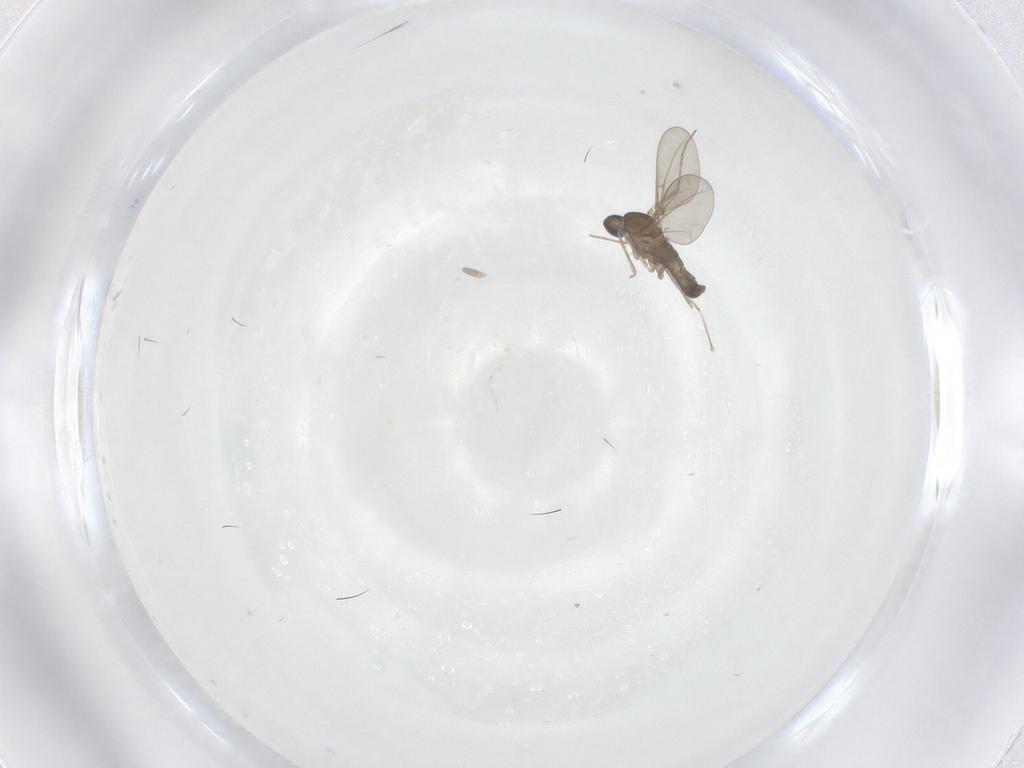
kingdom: Animalia
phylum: Arthropoda
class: Insecta
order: Diptera
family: Cecidomyiidae
